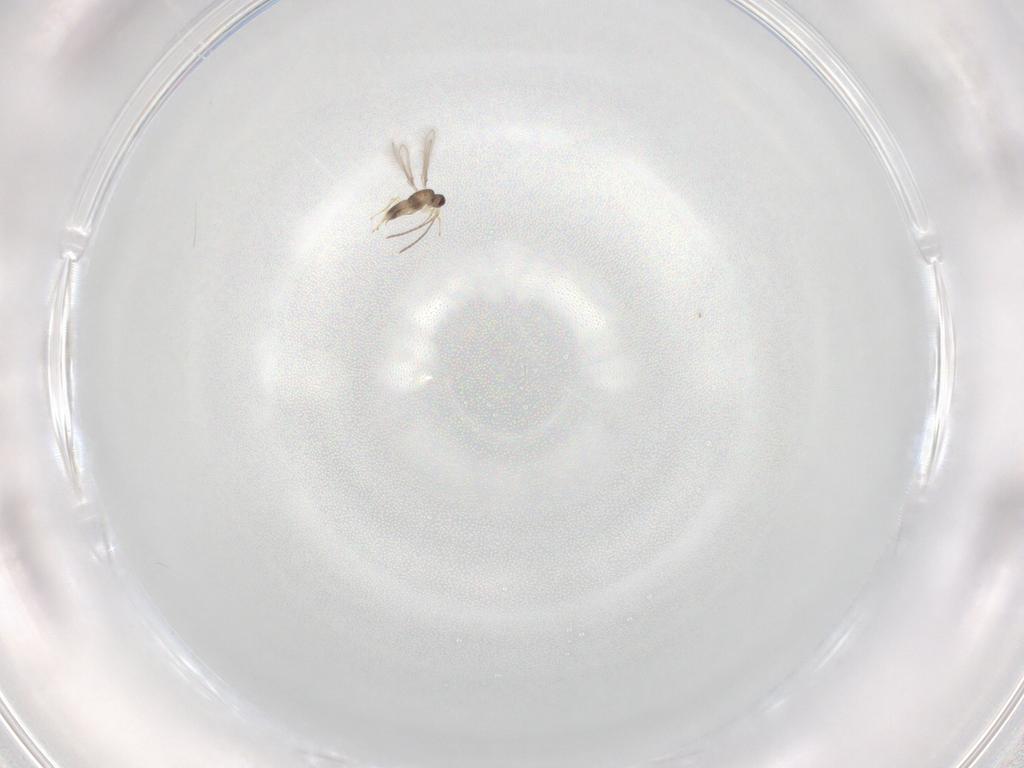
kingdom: Animalia
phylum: Arthropoda
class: Insecta
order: Hymenoptera
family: Mymaridae
